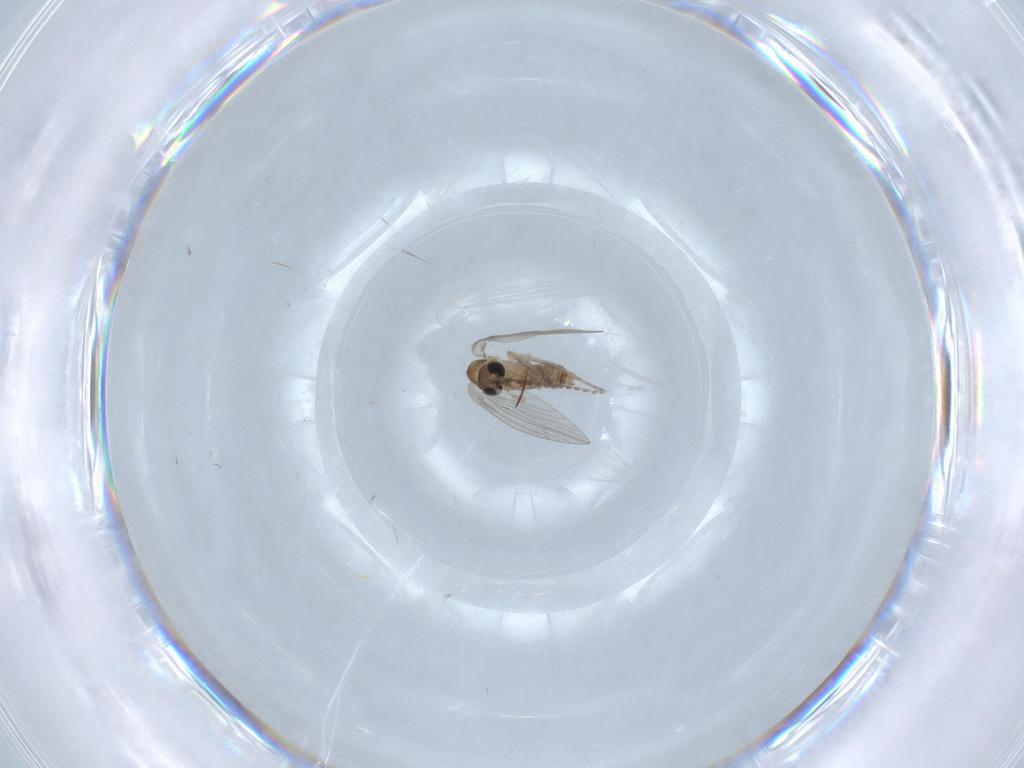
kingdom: Animalia
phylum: Arthropoda
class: Insecta
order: Diptera
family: Psychodidae
